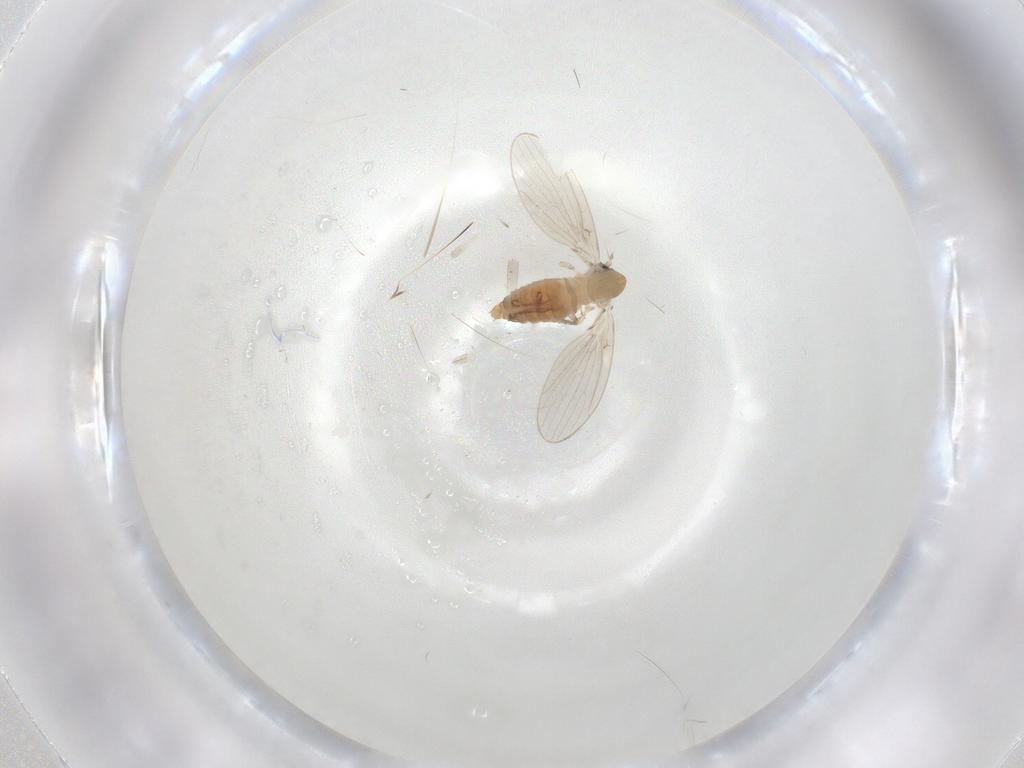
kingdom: Animalia
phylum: Arthropoda
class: Insecta
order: Diptera
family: Psychodidae
